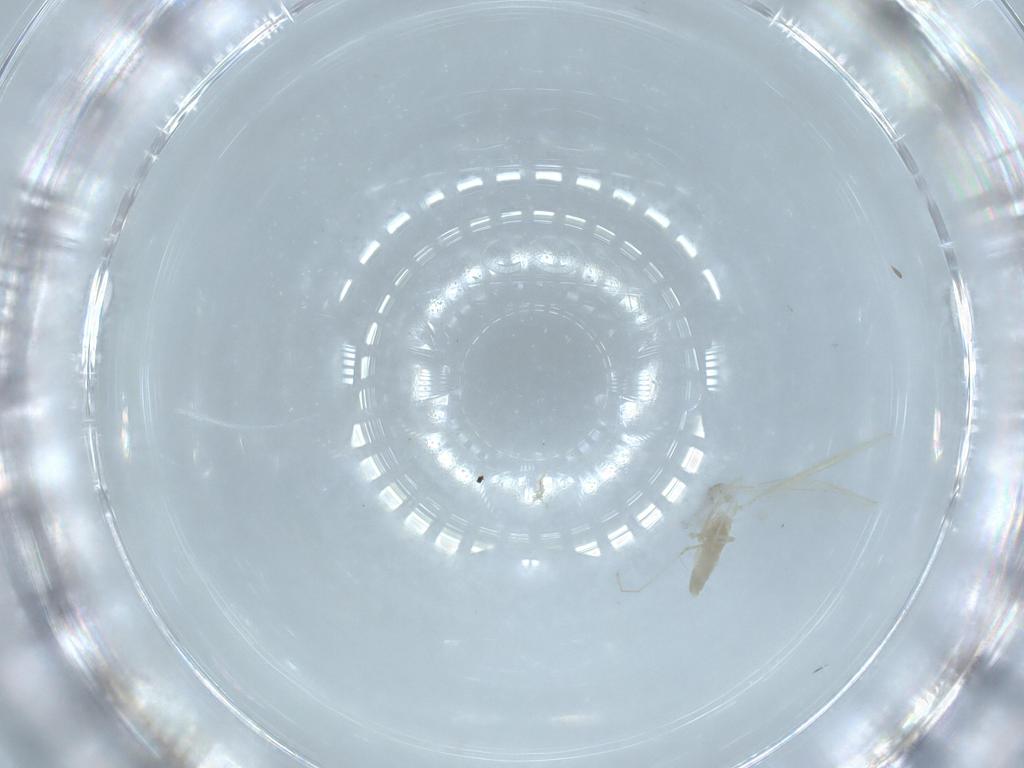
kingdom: Animalia
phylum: Arthropoda
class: Insecta
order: Diptera
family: Cecidomyiidae
